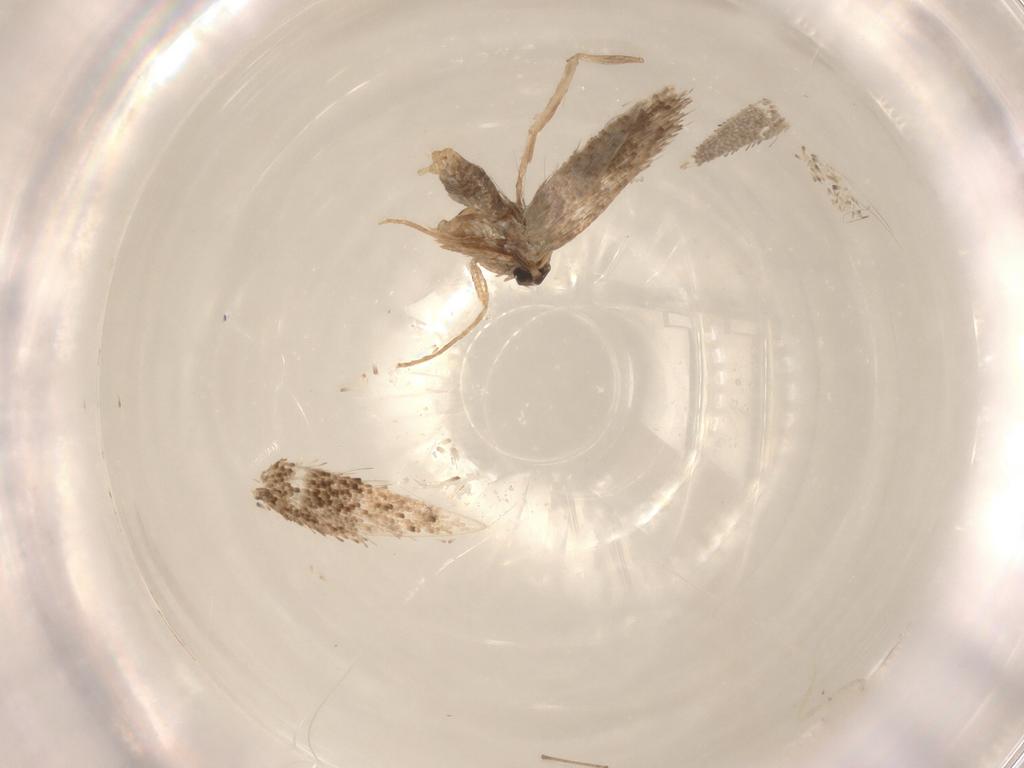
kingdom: Animalia
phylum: Arthropoda
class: Insecta
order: Lepidoptera
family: Psychidae
